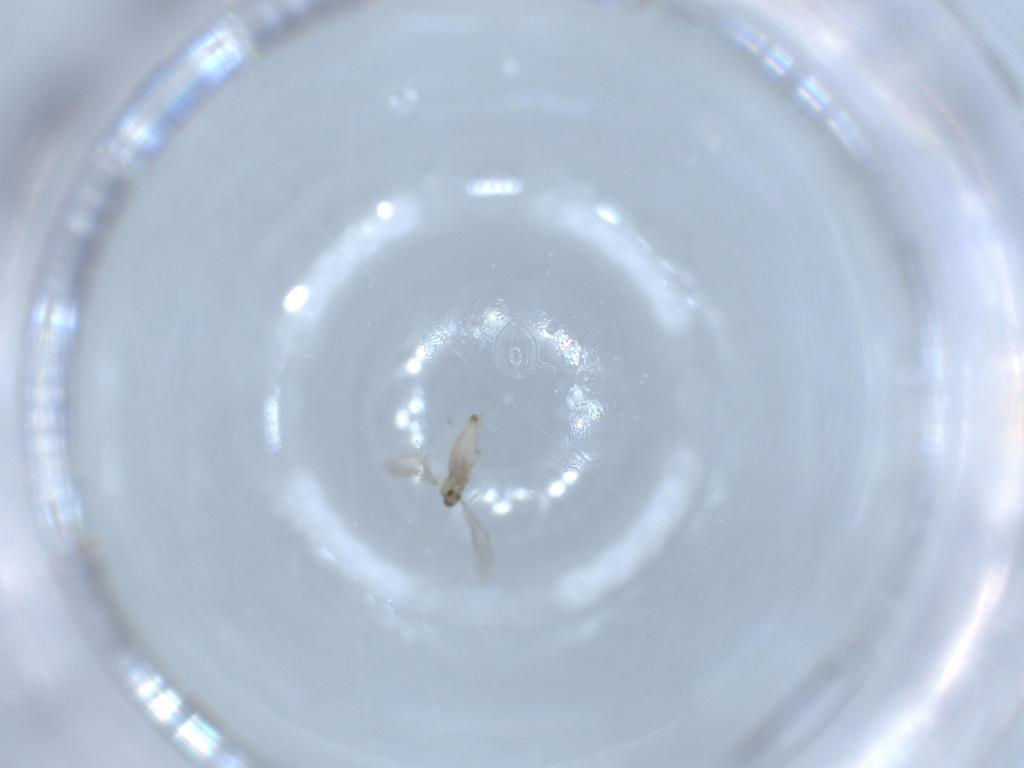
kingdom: Animalia
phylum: Arthropoda
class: Insecta
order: Diptera
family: Cecidomyiidae
